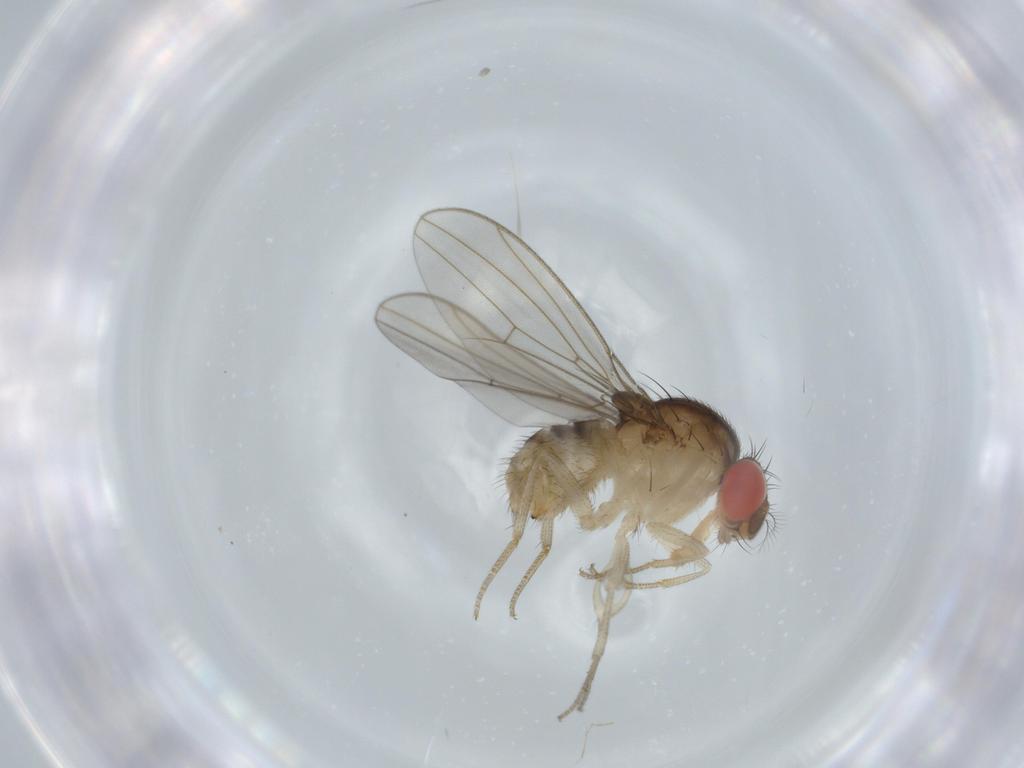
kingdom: Animalia
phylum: Arthropoda
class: Insecta
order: Diptera
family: Drosophilidae
